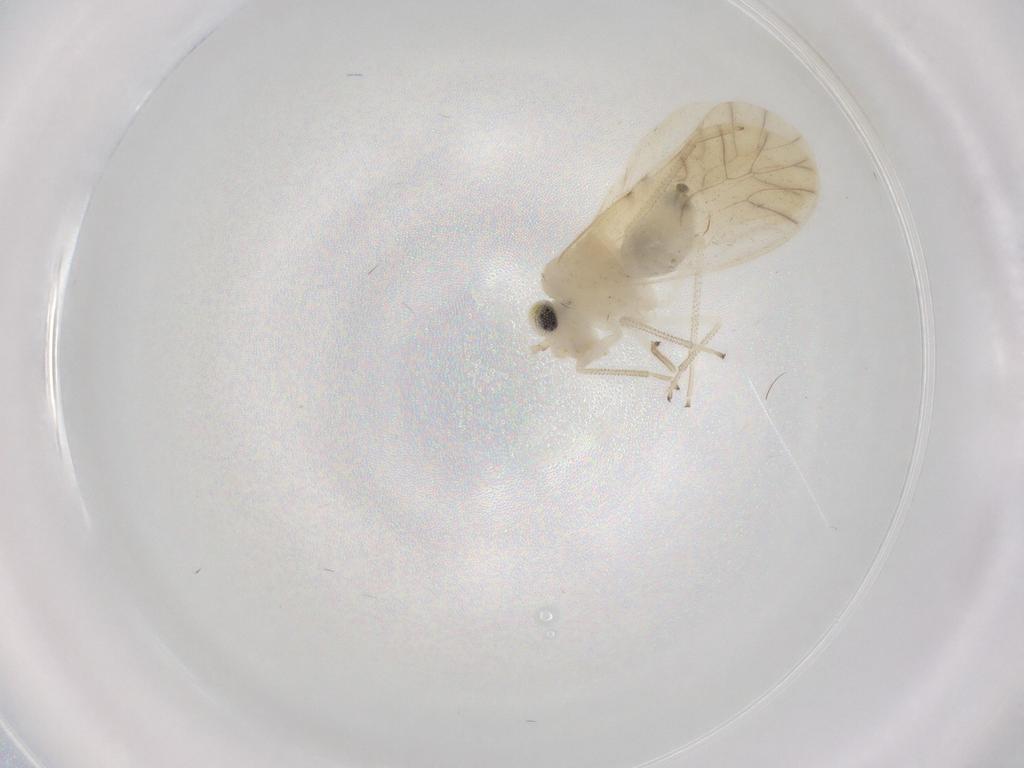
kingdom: Animalia
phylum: Arthropoda
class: Insecta
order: Psocodea
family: Caeciliusidae
